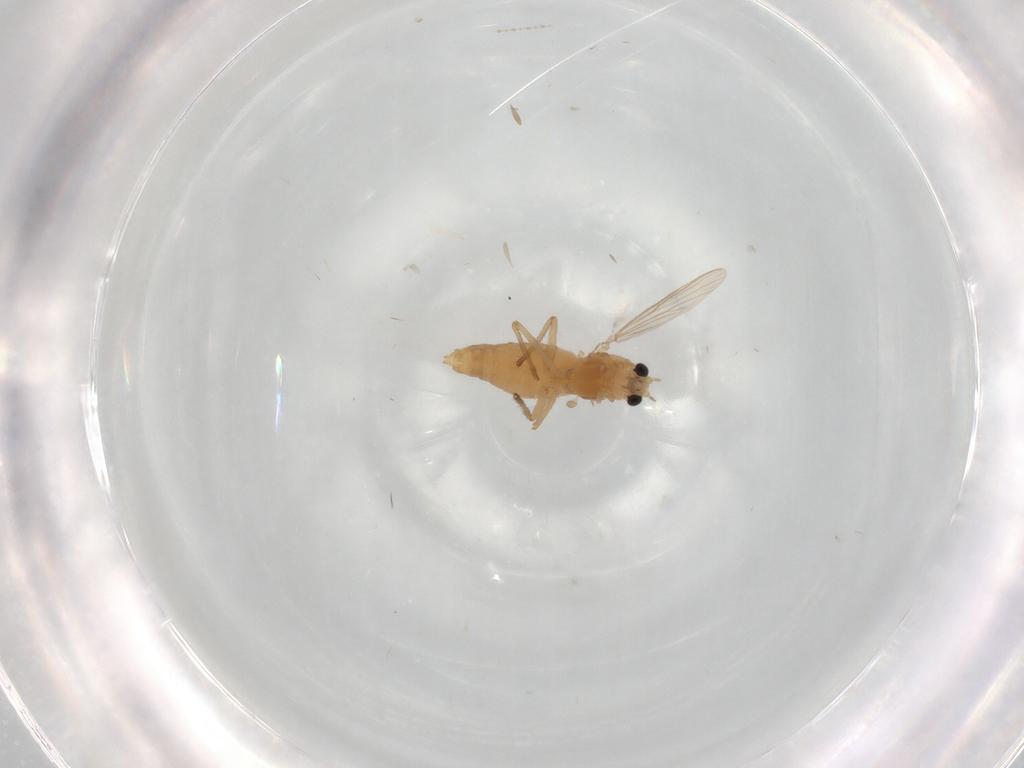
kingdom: Animalia
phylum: Arthropoda
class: Insecta
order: Diptera
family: Chironomidae
